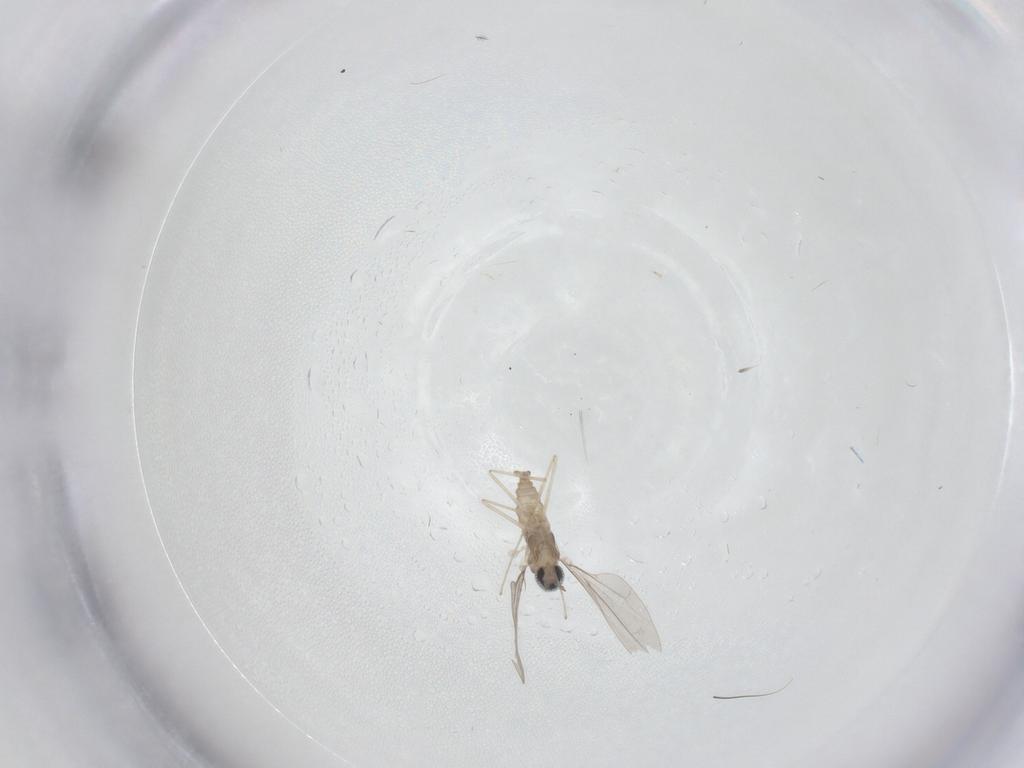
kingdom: Animalia
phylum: Arthropoda
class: Insecta
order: Diptera
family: Cecidomyiidae
